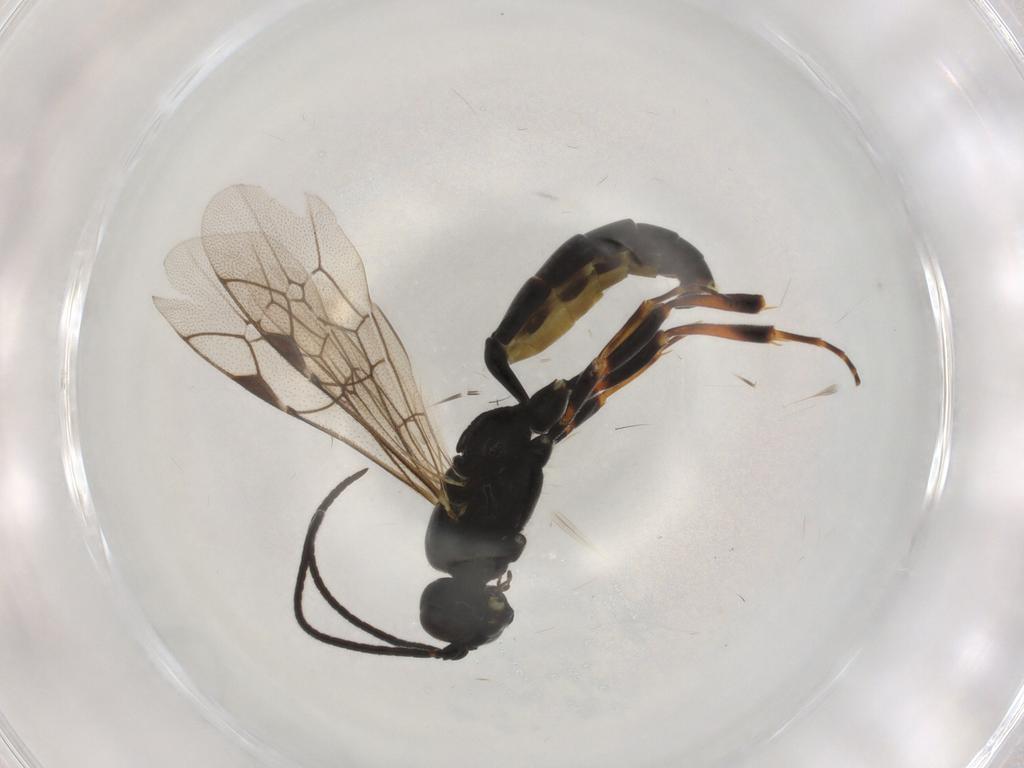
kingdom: Animalia
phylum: Arthropoda
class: Insecta
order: Hymenoptera
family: Ichneumonidae
